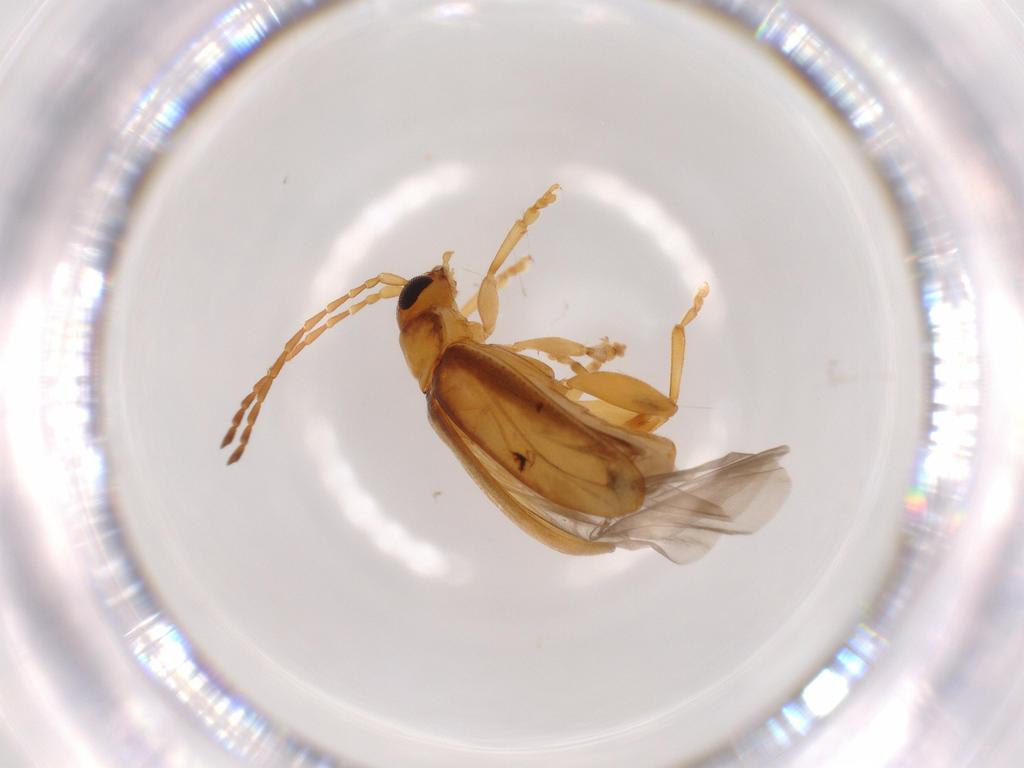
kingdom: Animalia
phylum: Arthropoda
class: Insecta
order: Coleoptera
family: Chrysomelidae
